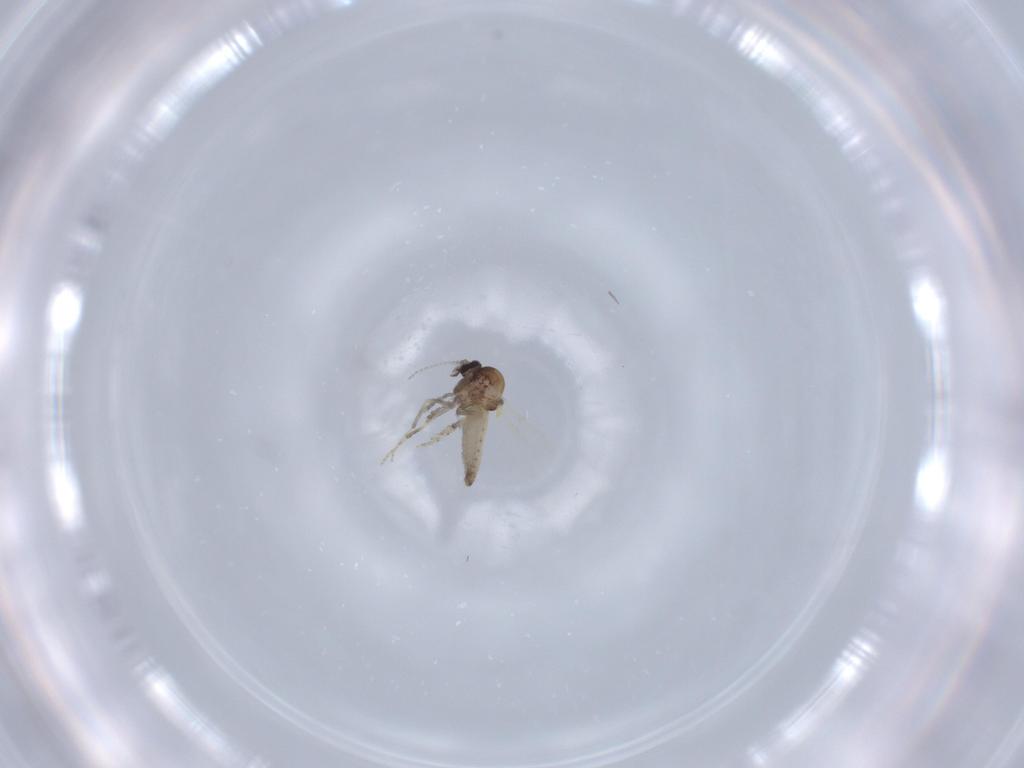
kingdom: Animalia
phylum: Arthropoda
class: Insecta
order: Diptera
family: Ceratopogonidae
